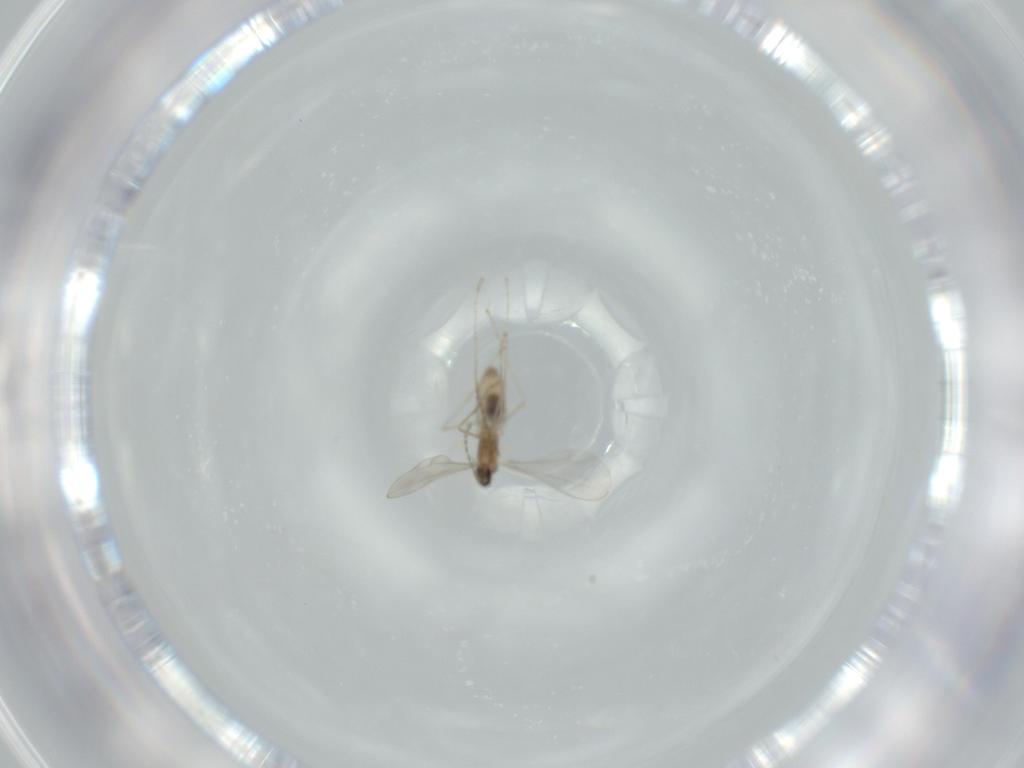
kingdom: Animalia
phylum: Arthropoda
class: Insecta
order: Diptera
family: Cecidomyiidae
